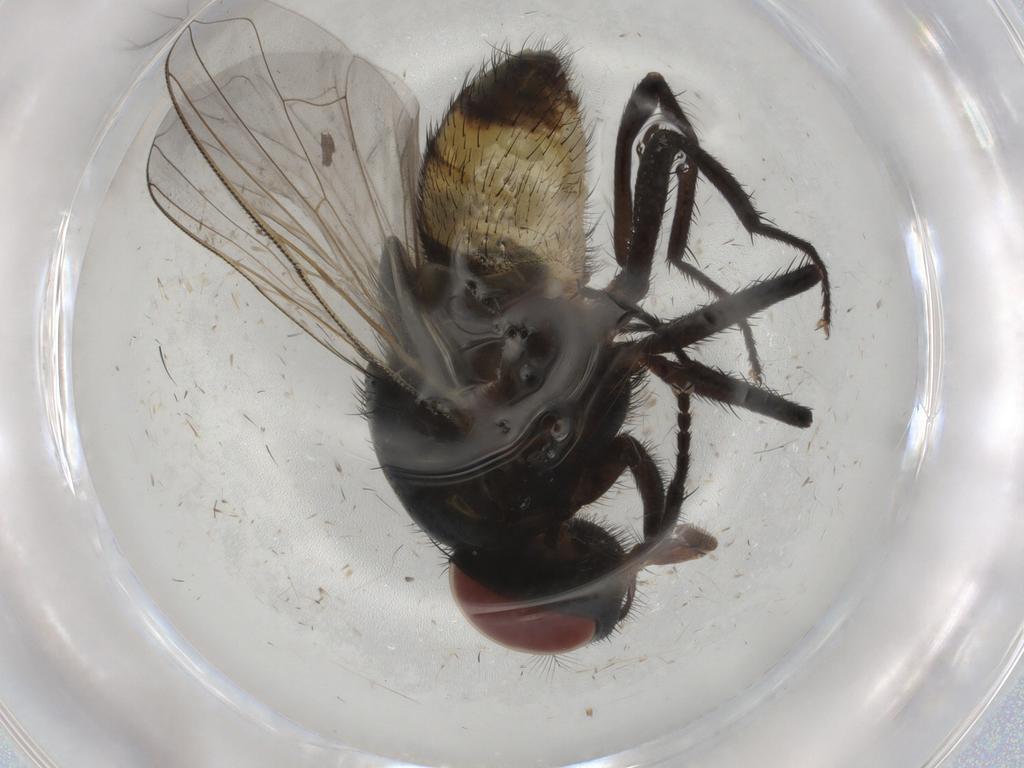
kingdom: Animalia
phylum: Arthropoda
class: Insecta
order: Diptera
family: Muscidae
